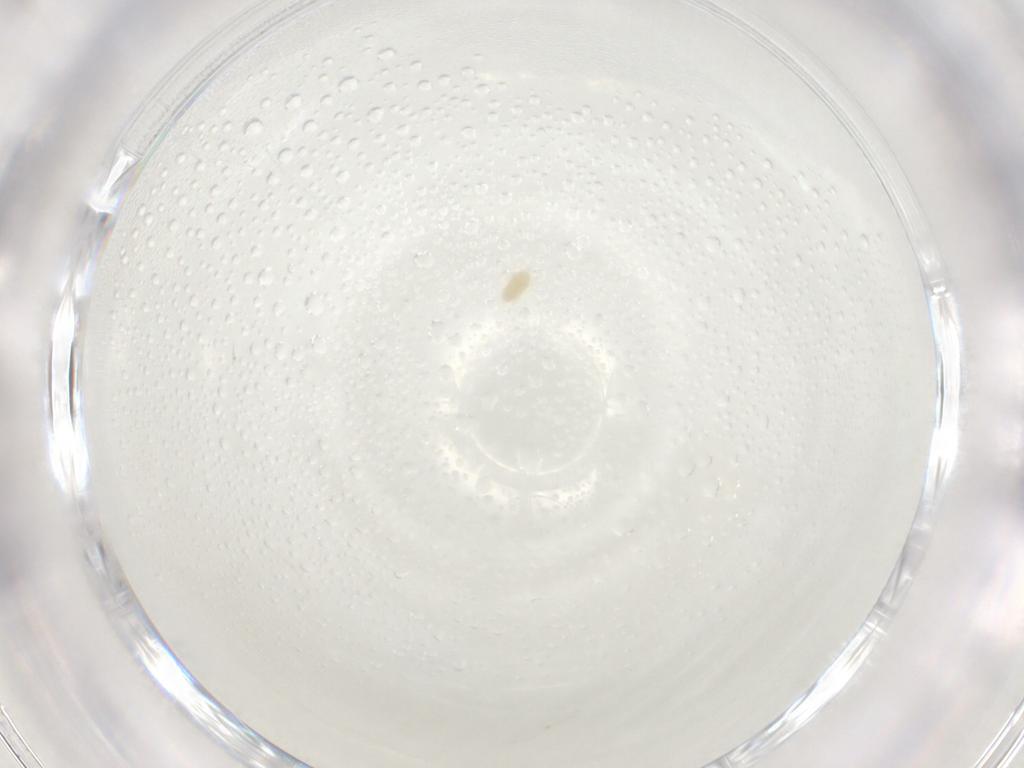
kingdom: Animalia
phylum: Arthropoda
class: Arachnida
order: Trombidiformes
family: Eupodidae
